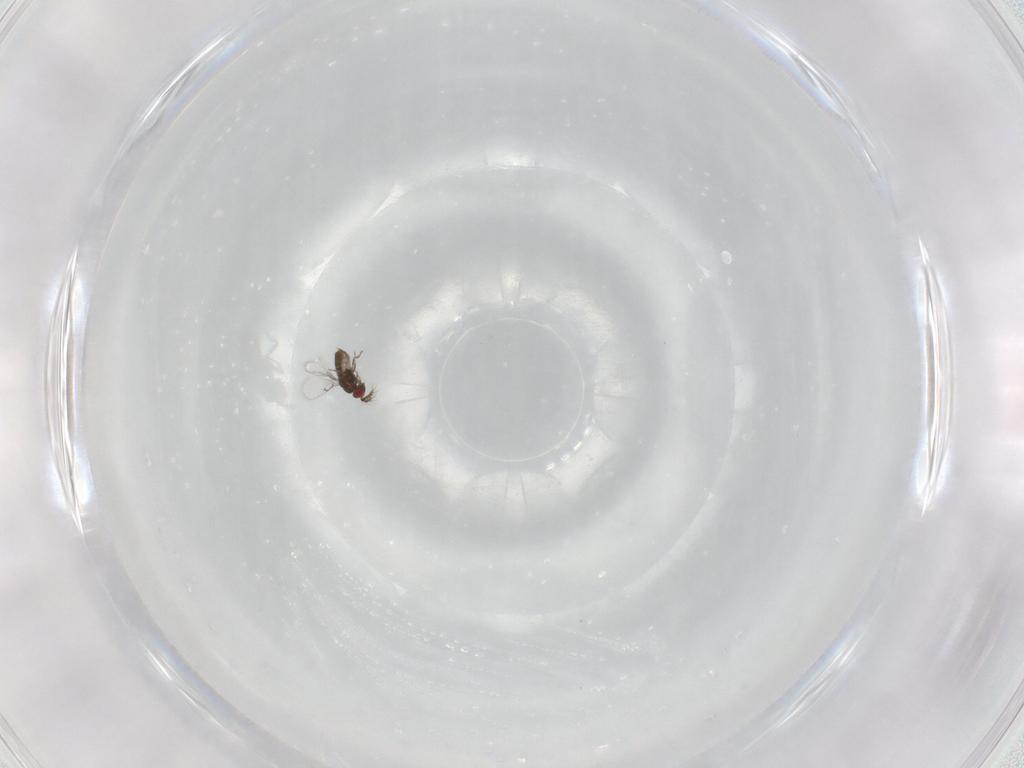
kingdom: Animalia
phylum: Arthropoda
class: Insecta
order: Hymenoptera
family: Trichogrammatidae
